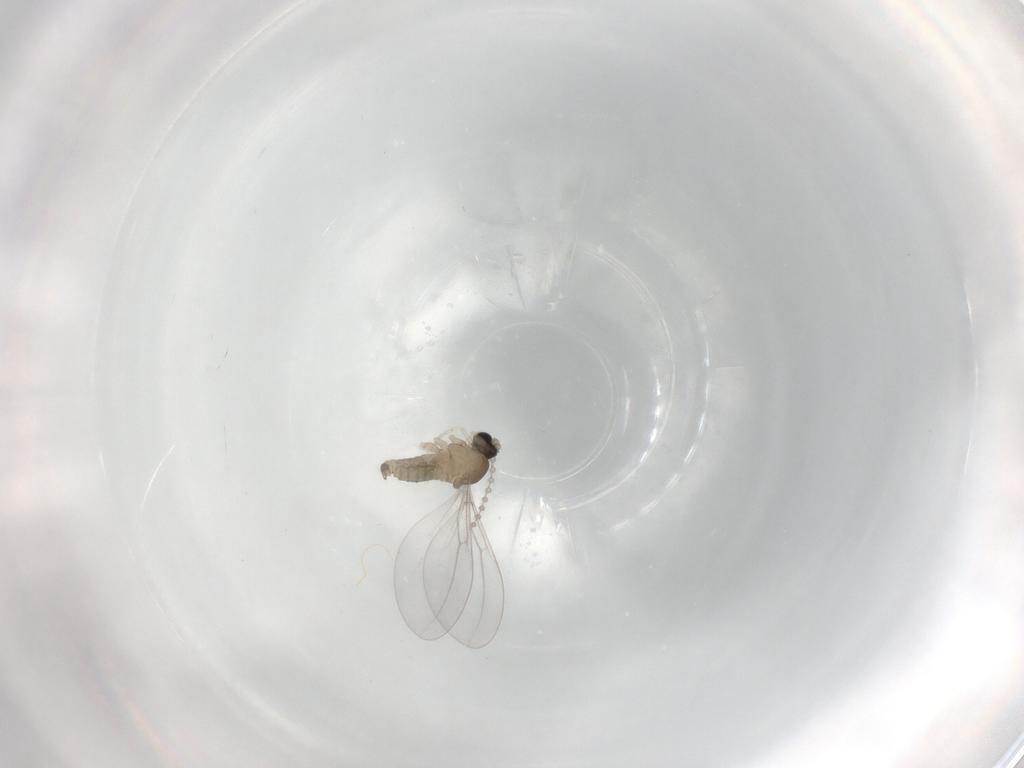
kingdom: Animalia
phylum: Arthropoda
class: Insecta
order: Diptera
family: Cecidomyiidae
